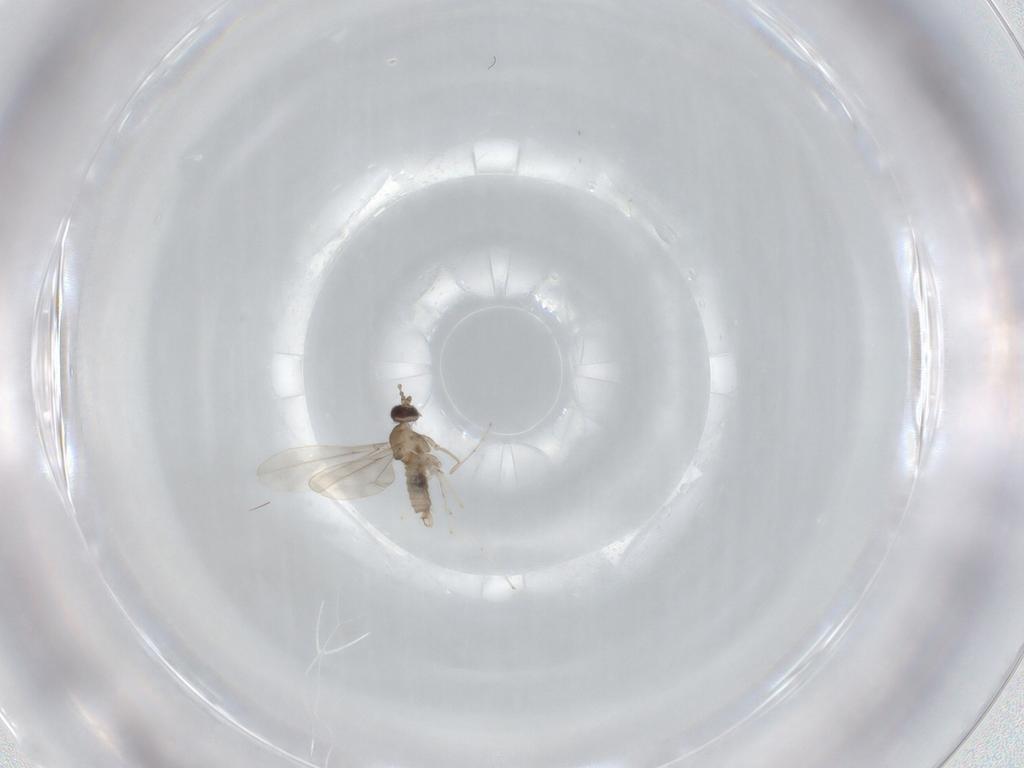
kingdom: Animalia
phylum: Arthropoda
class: Insecta
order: Diptera
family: Cecidomyiidae
